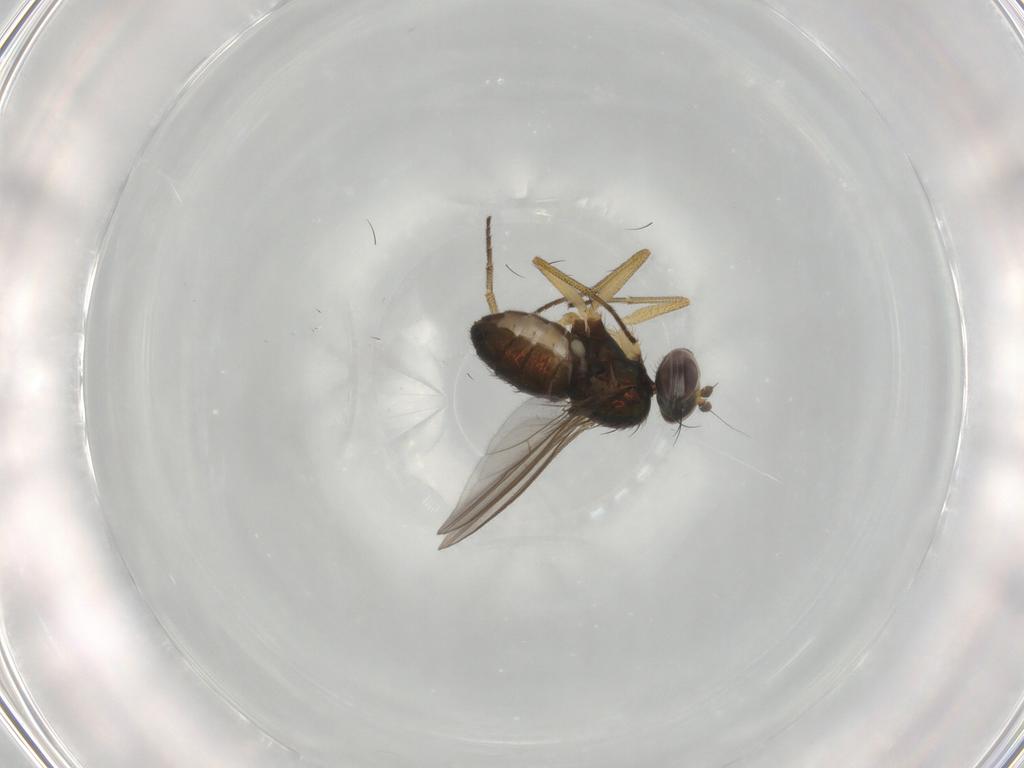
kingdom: Animalia
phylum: Arthropoda
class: Insecta
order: Diptera
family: Dolichopodidae
